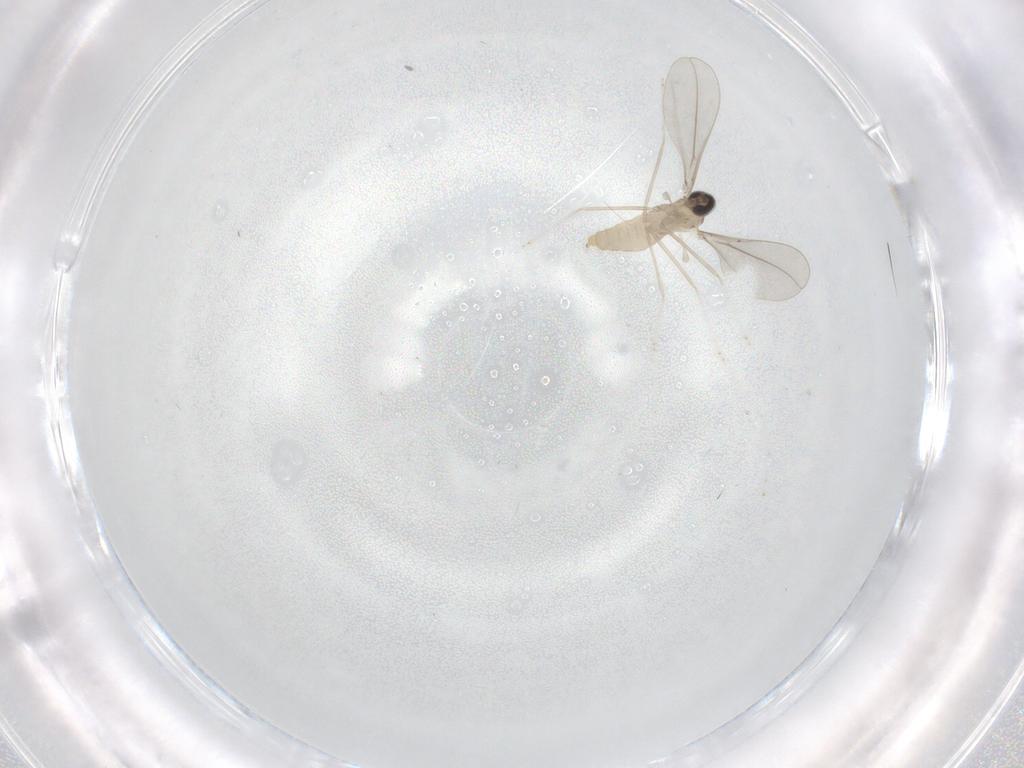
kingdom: Animalia
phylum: Arthropoda
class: Insecta
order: Diptera
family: Cecidomyiidae
